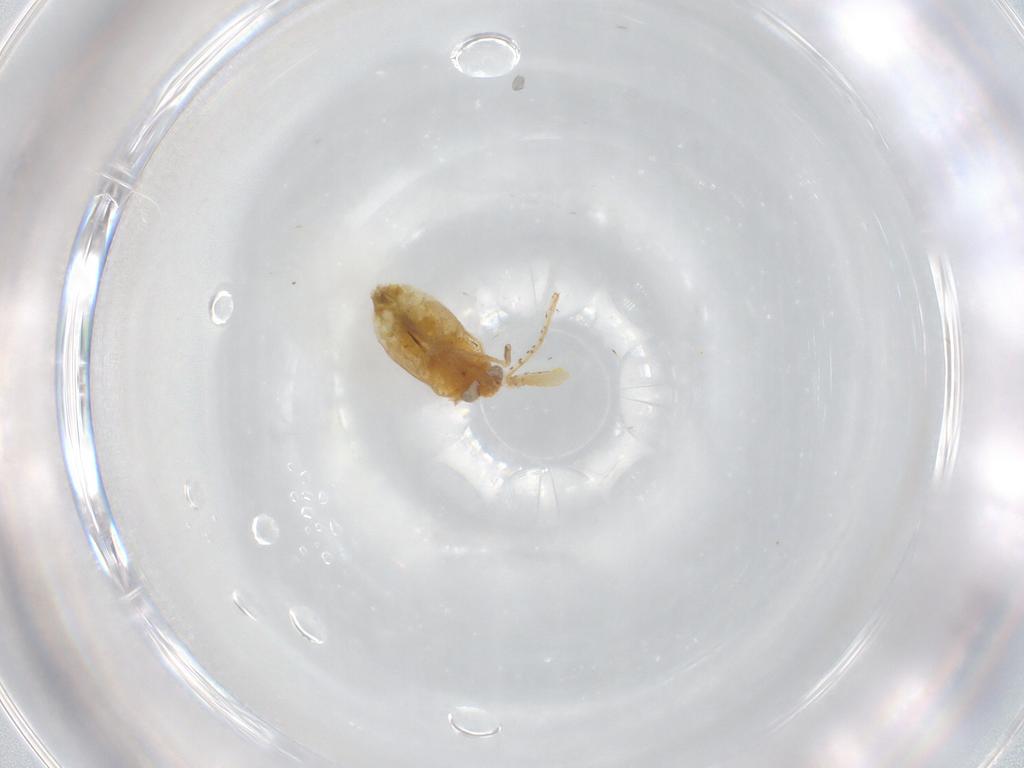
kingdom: Animalia
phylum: Arthropoda
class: Insecta
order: Hemiptera
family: Miridae
